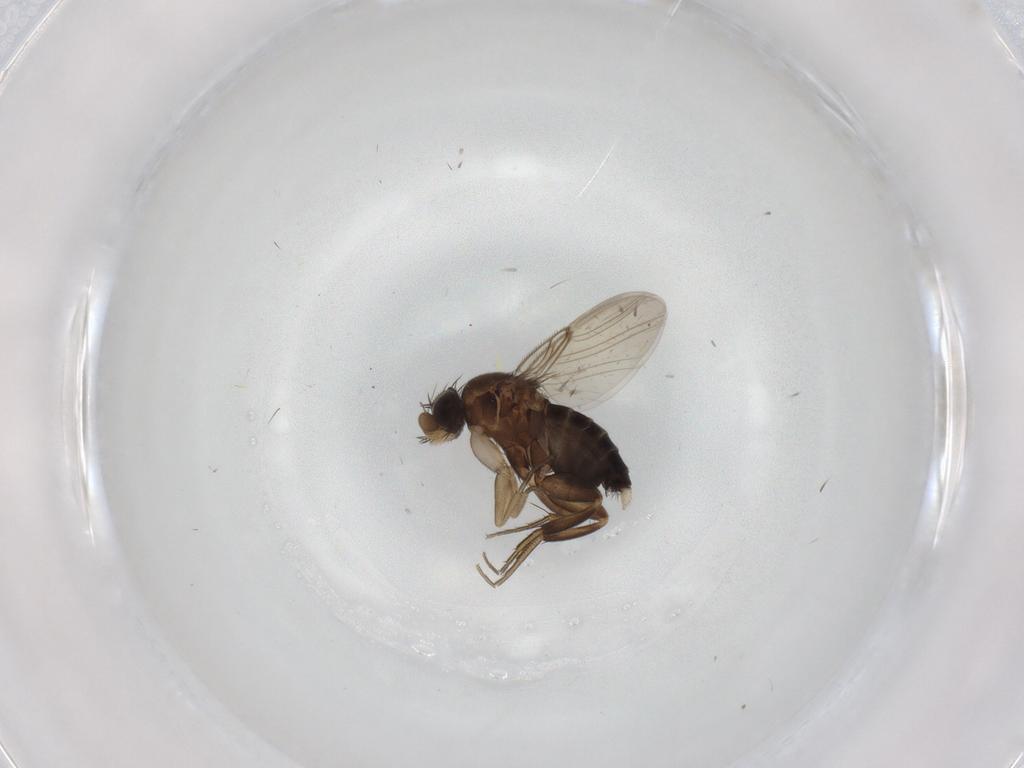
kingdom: Animalia
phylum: Arthropoda
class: Insecta
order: Diptera
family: Phoridae
